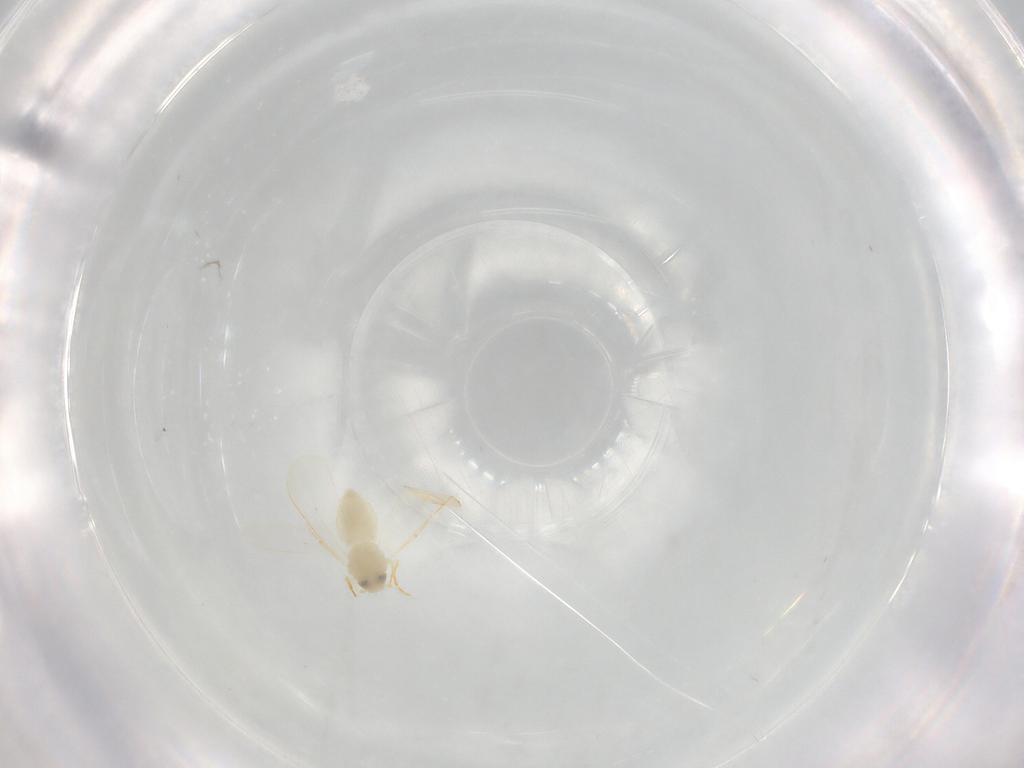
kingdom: Animalia
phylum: Arthropoda
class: Insecta
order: Hemiptera
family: Aleyrodidae
